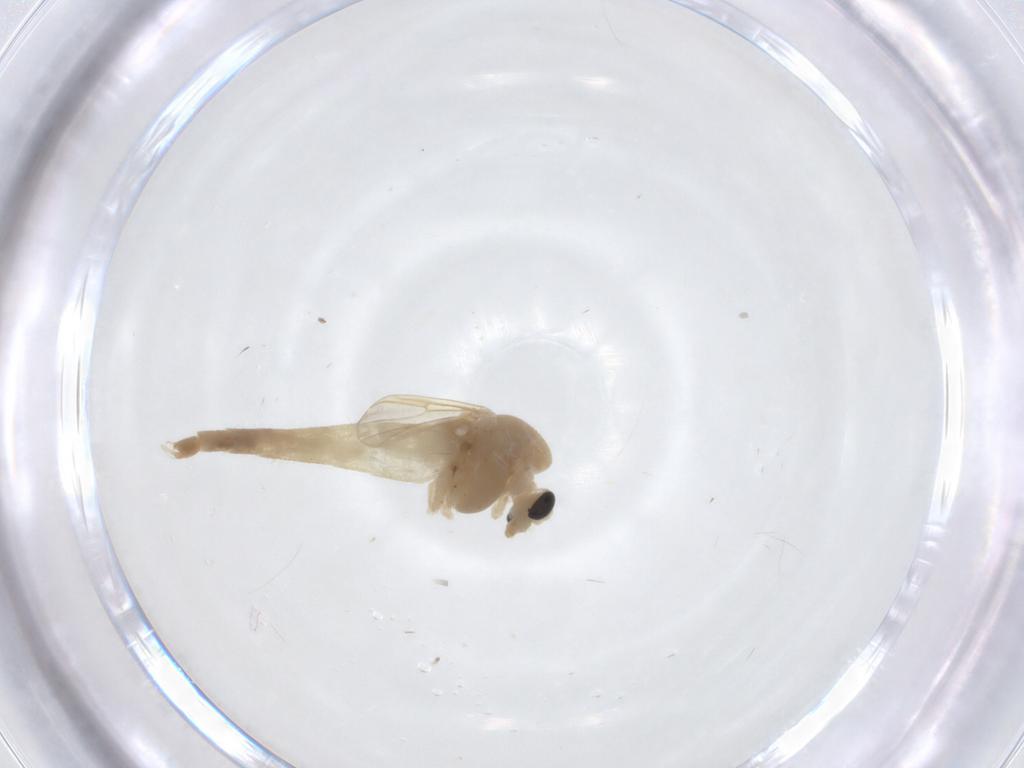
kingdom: Animalia
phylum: Arthropoda
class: Insecta
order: Diptera
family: Chironomidae
